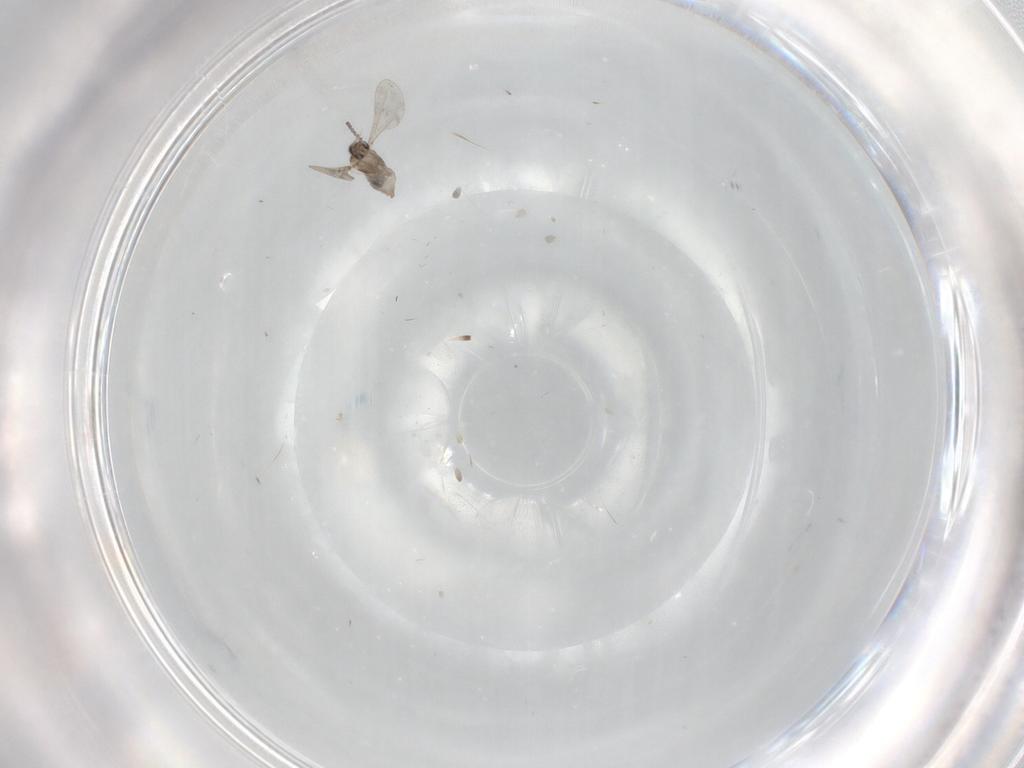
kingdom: Animalia
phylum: Arthropoda
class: Insecta
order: Diptera
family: Cecidomyiidae
